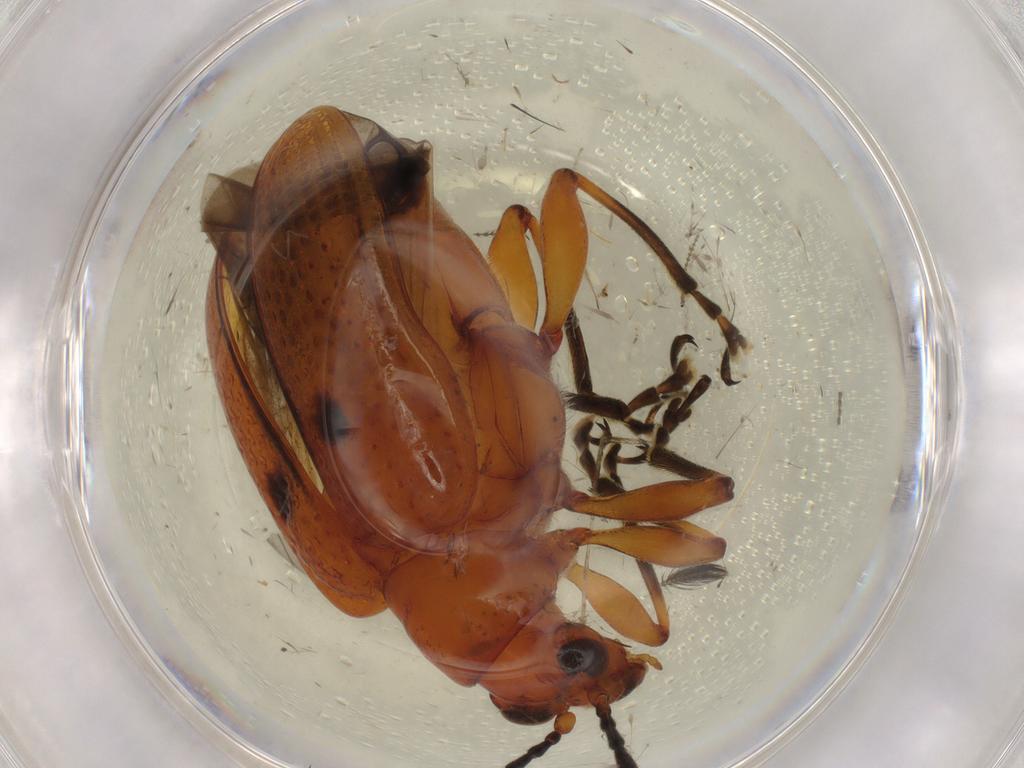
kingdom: Animalia
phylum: Arthropoda
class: Insecta
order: Coleoptera
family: Chrysomelidae
